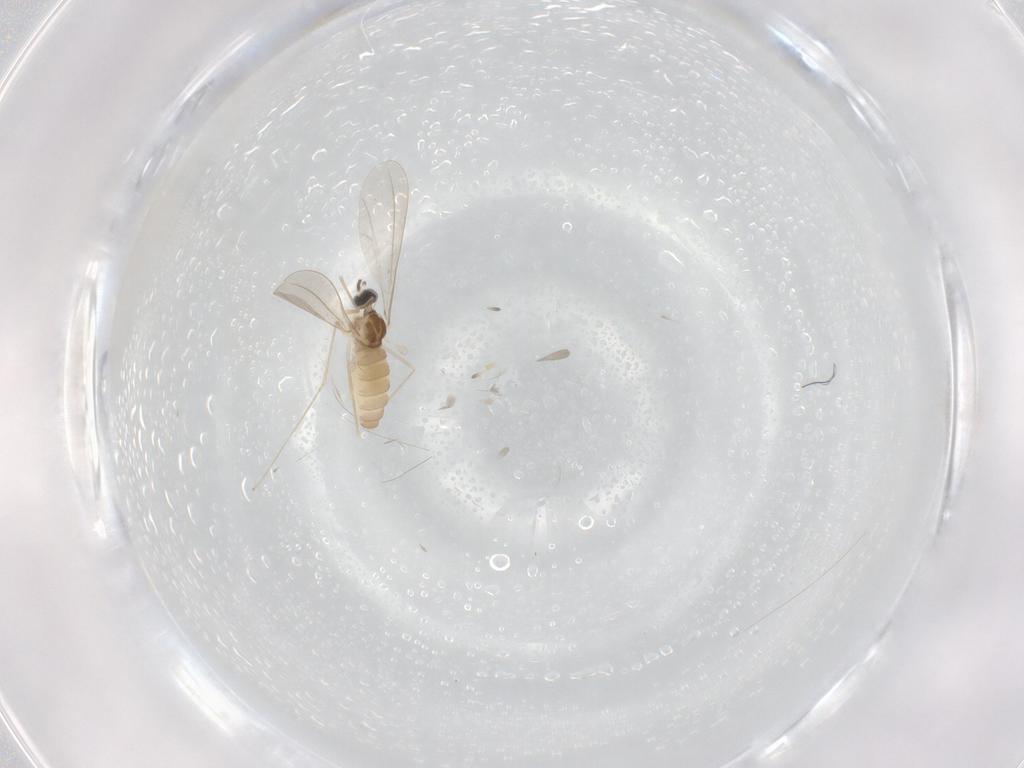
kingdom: Animalia
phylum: Arthropoda
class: Insecta
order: Diptera
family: Cecidomyiidae
